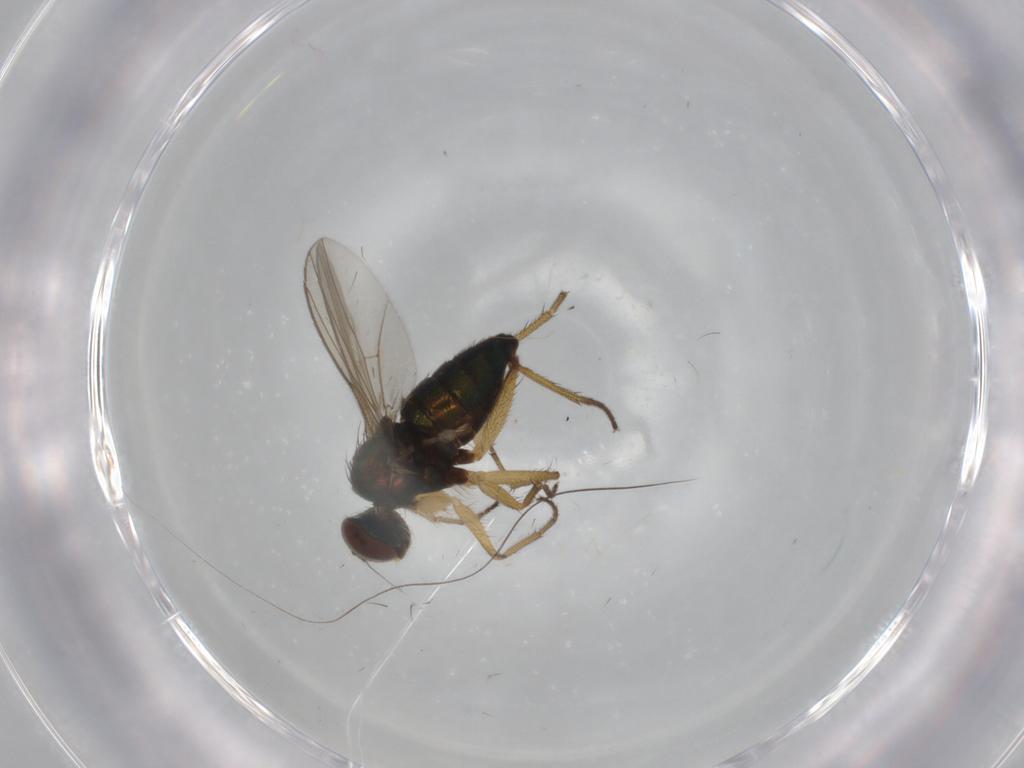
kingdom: Animalia
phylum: Arthropoda
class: Insecta
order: Diptera
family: Dolichopodidae
